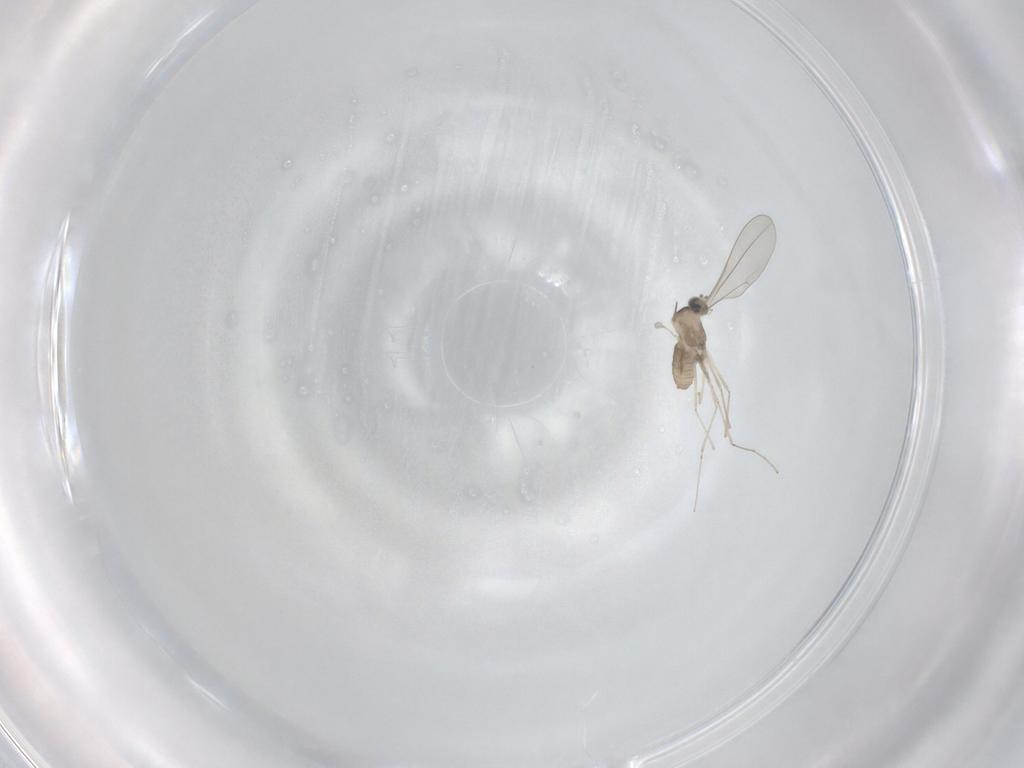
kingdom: Animalia
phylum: Arthropoda
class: Insecta
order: Diptera
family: Cecidomyiidae
